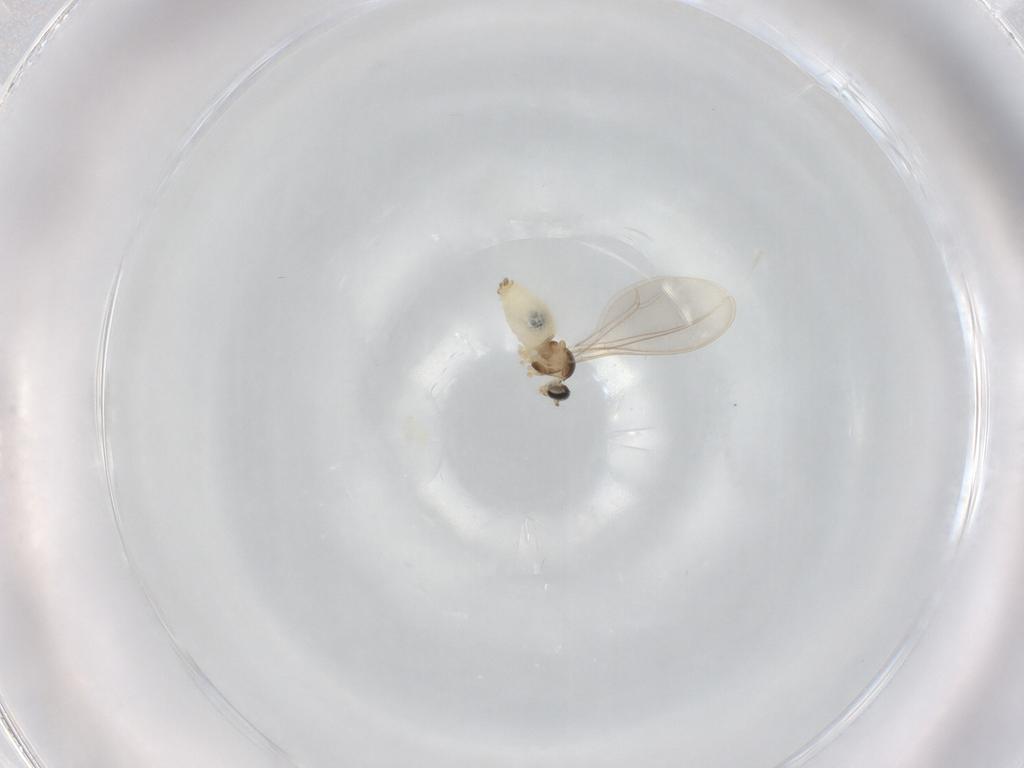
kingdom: Animalia
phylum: Arthropoda
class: Insecta
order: Diptera
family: Cecidomyiidae
